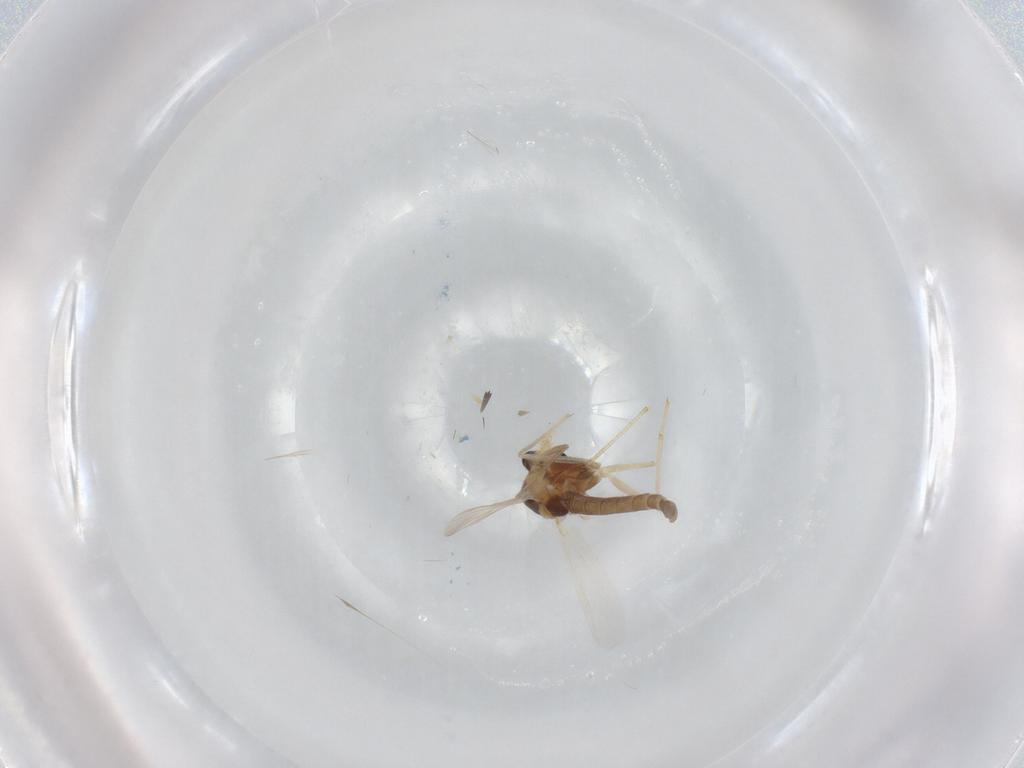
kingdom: Animalia
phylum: Arthropoda
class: Insecta
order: Diptera
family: Chironomidae
